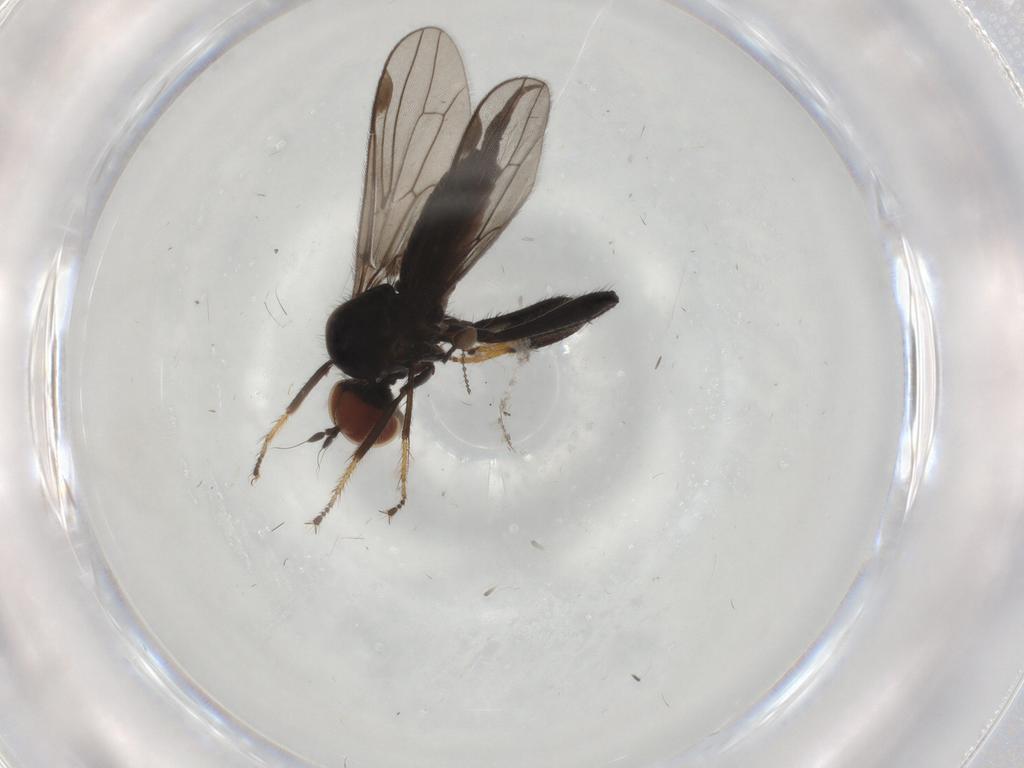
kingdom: Animalia
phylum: Arthropoda
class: Insecta
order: Diptera
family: Hybotidae
